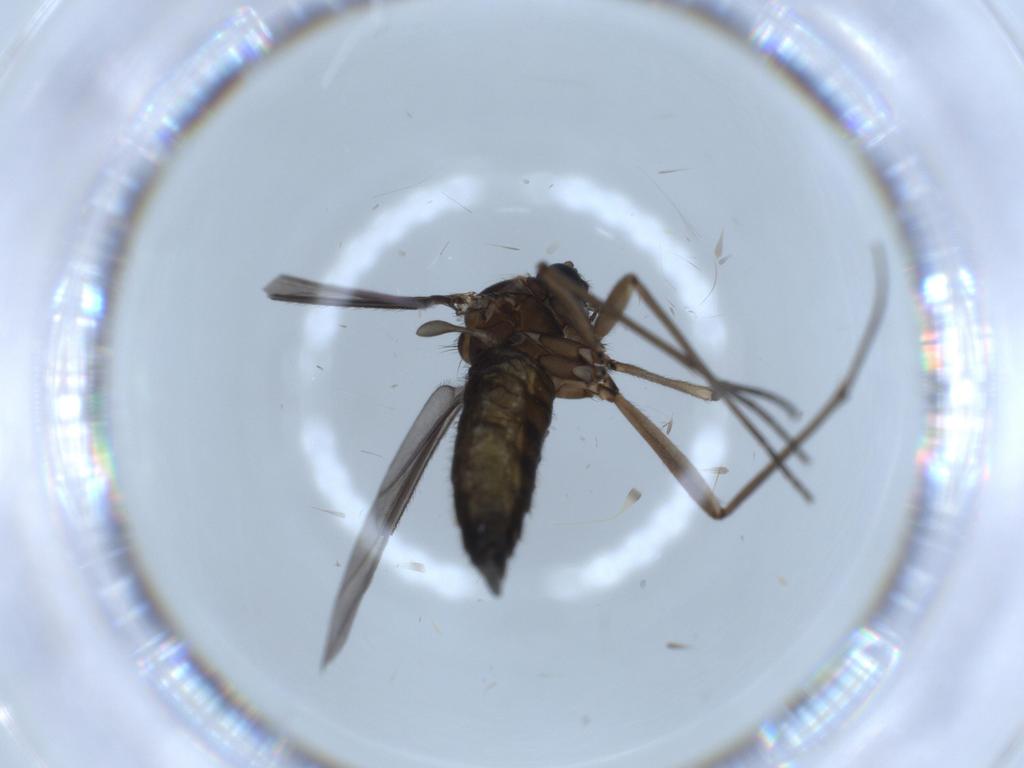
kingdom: Animalia
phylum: Arthropoda
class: Insecta
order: Diptera
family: Sciaridae
